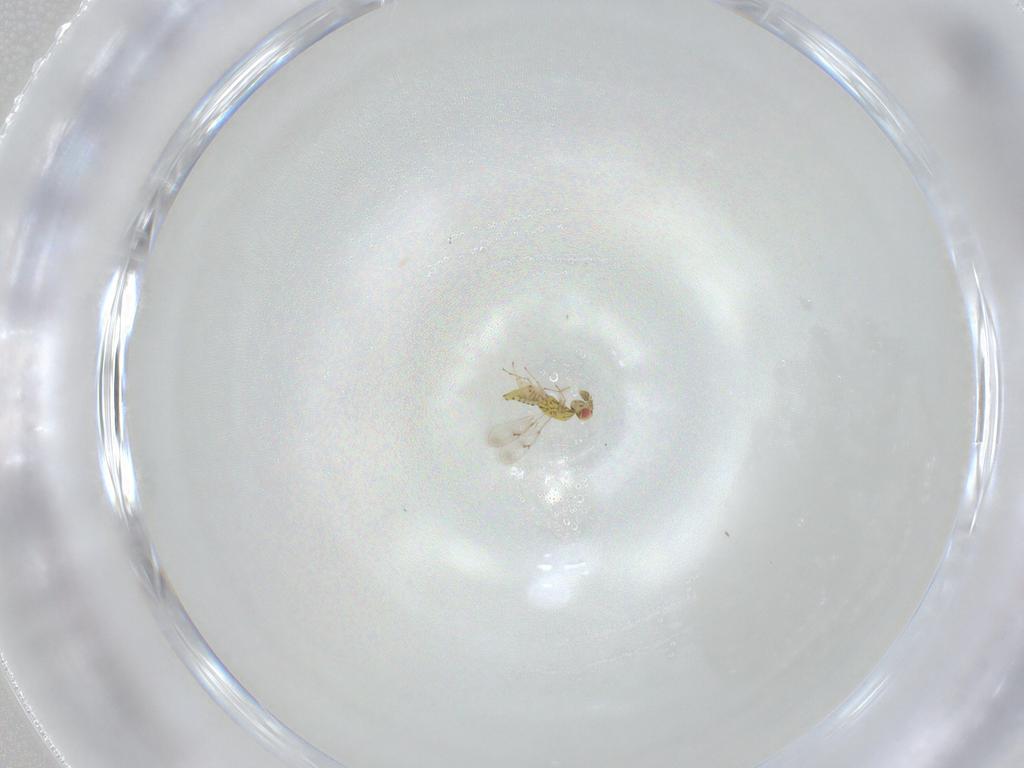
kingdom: Animalia
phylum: Arthropoda
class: Insecta
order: Hymenoptera
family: Eulophidae
